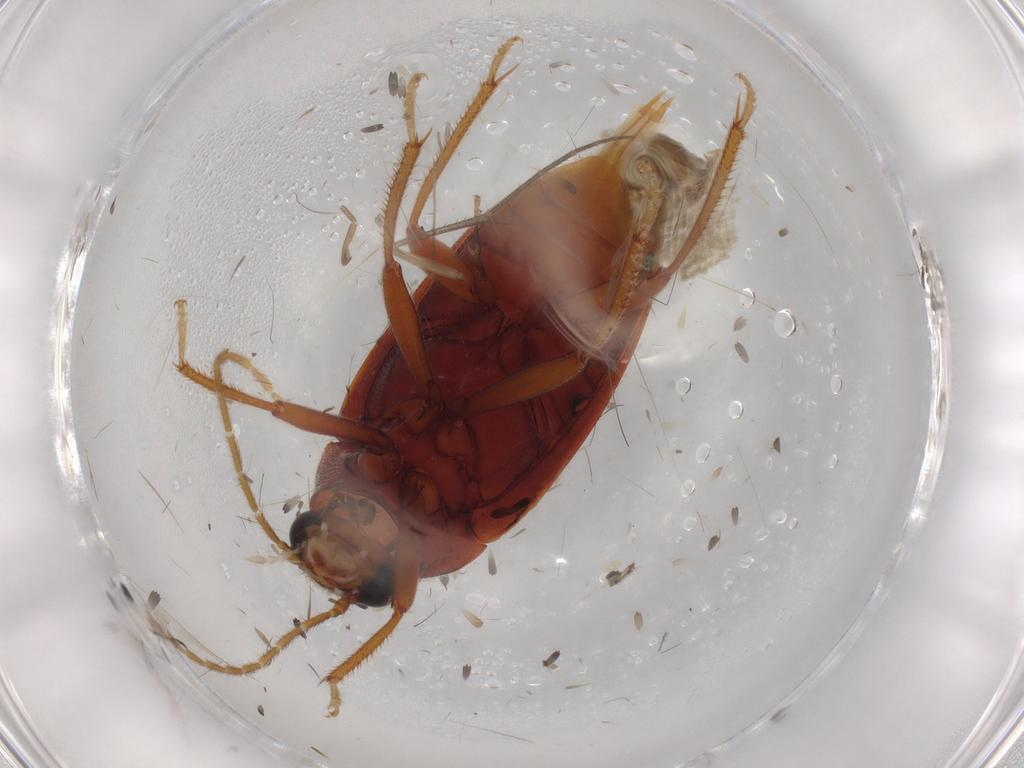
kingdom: Animalia
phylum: Arthropoda
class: Insecta
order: Coleoptera
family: Ptilodactylidae
